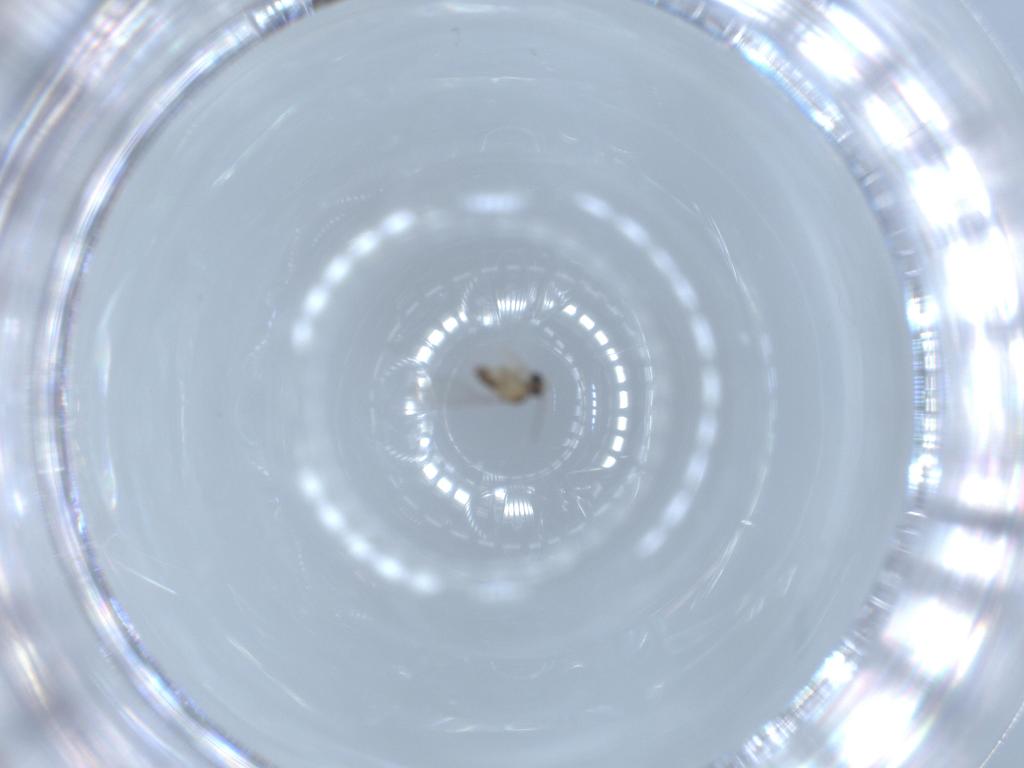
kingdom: Animalia
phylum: Arthropoda
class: Insecta
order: Diptera
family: Cecidomyiidae
